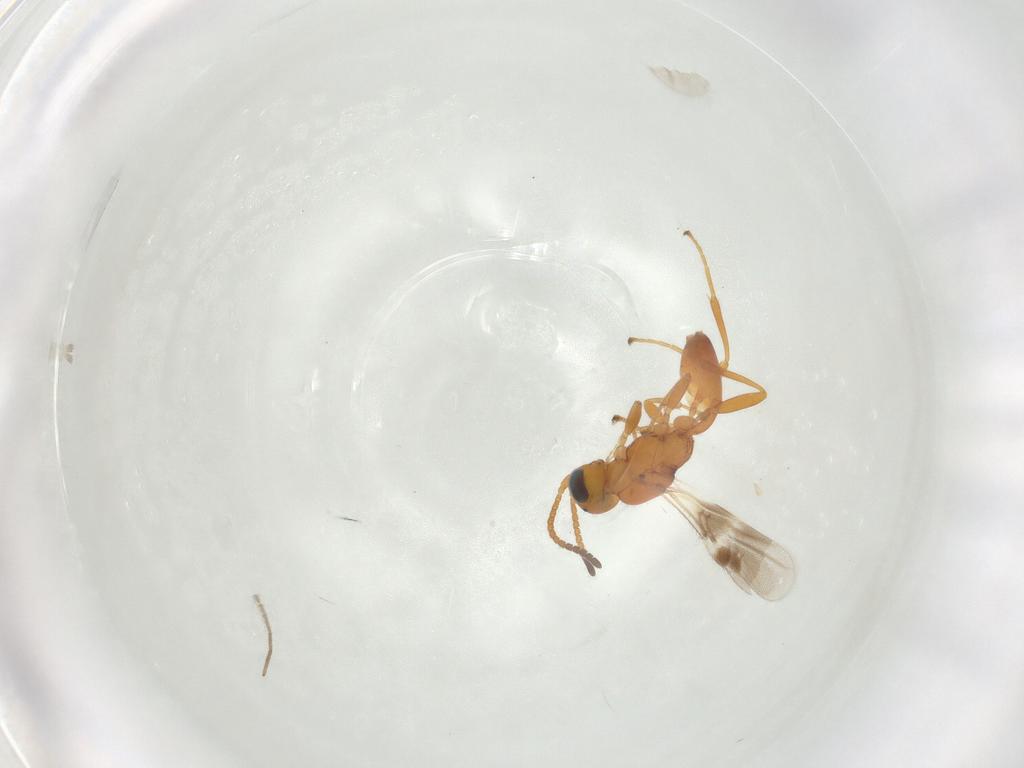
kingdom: Animalia
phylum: Arthropoda
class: Insecta
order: Hymenoptera
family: Braconidae
